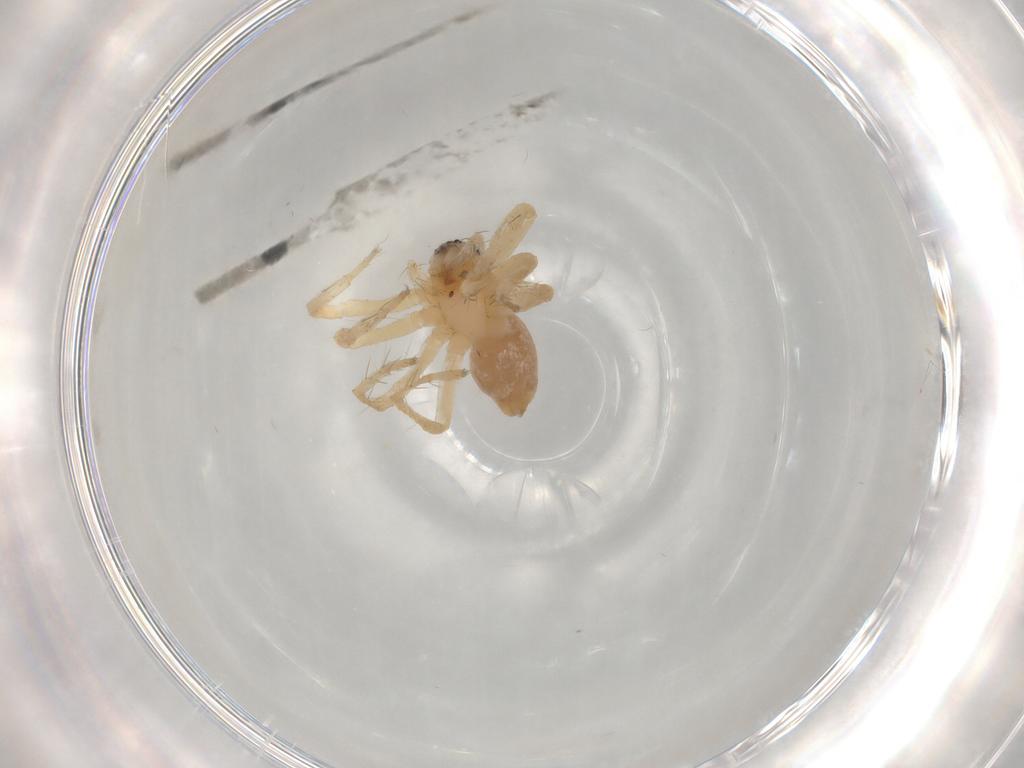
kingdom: Animalia
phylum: Arthropoda
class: Arachnida
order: Araneae
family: Pisauridae
